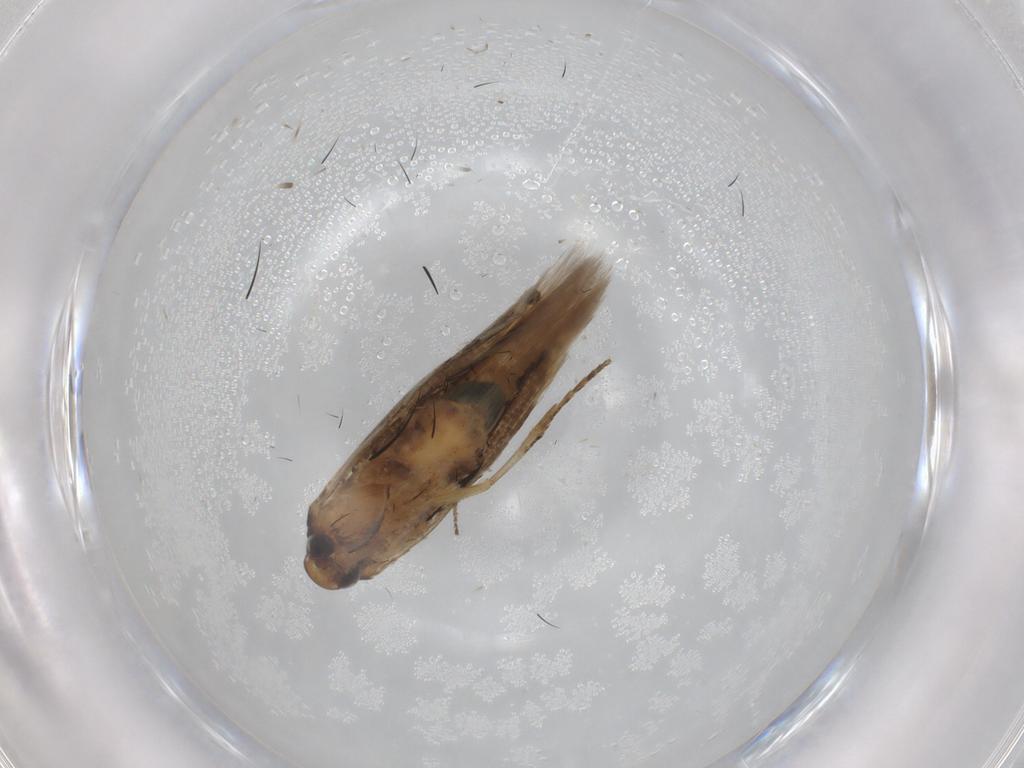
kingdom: Animalia
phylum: Arthropoda
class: Insecta
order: Lepidoptera
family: Cosmopterigidae
